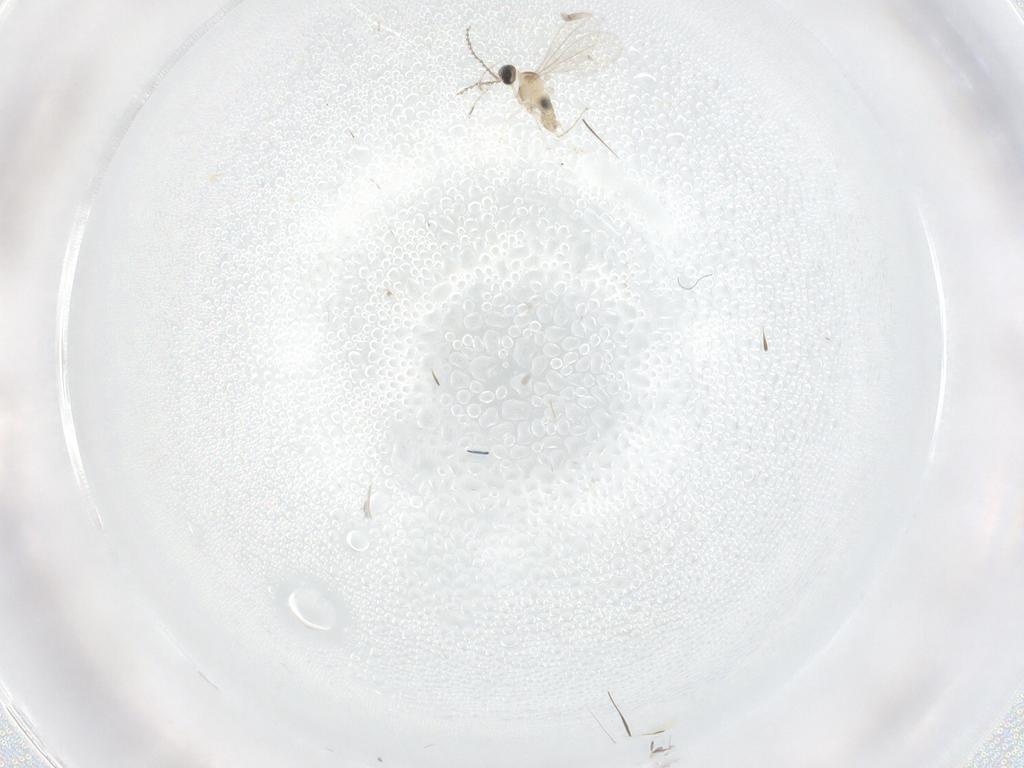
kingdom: Animalia
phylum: Arthropoda
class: Insecta
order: Diptera
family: Cecidomyiidae
